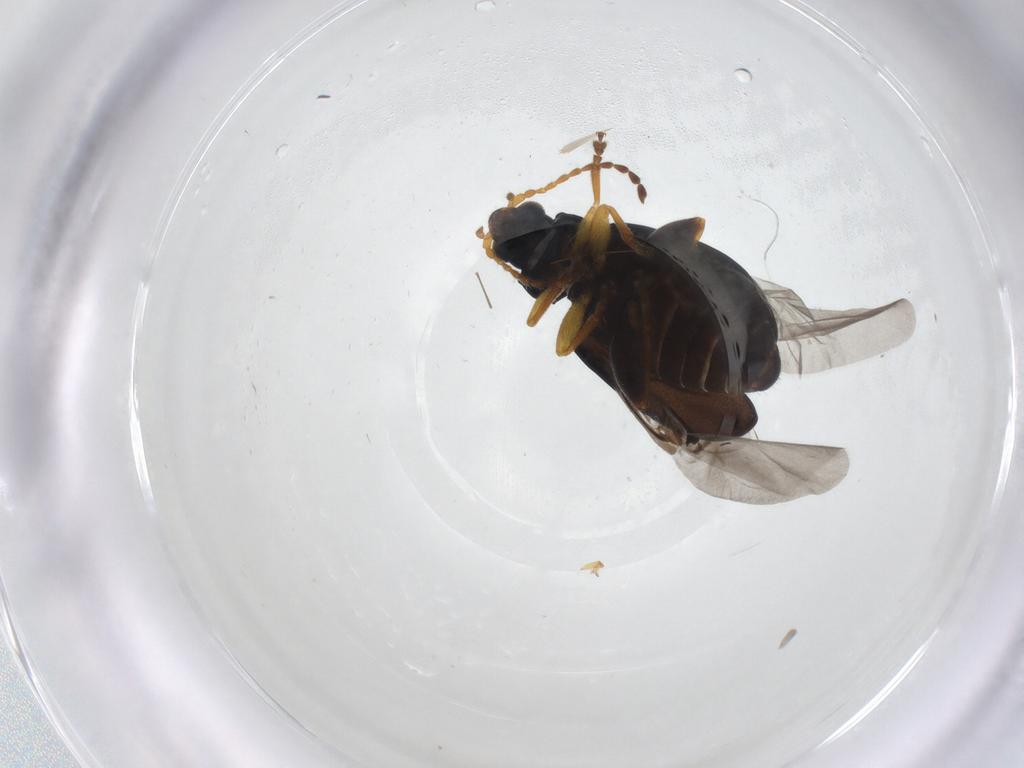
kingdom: Animalia
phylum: Arthropoda
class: Insecta
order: Coleoptera
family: Chrysomelidae
